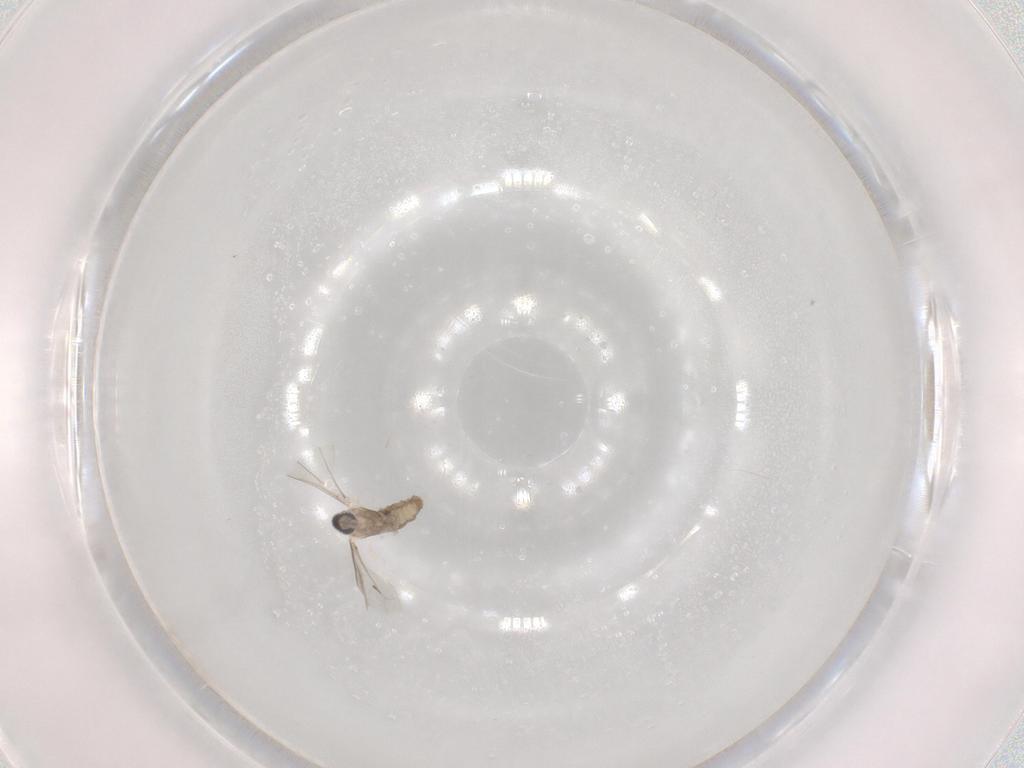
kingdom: Animalia
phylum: Arthropoda
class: Insecta
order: Diptera
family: Cecidomyiidae
